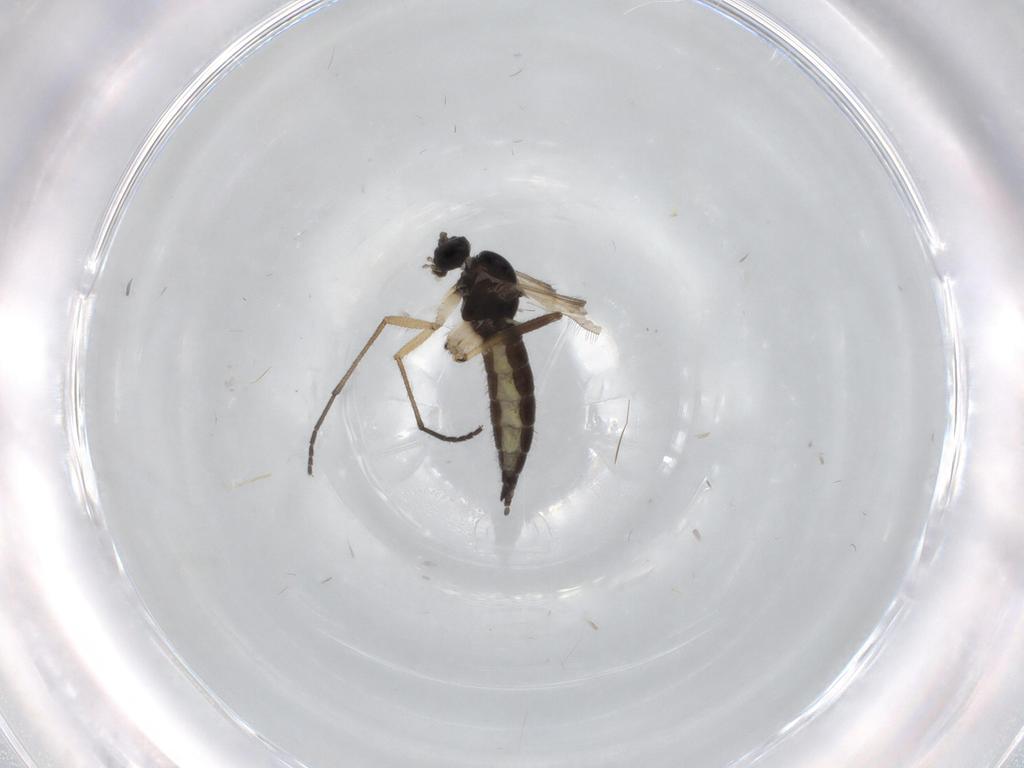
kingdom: Animalia
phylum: Arthropoda
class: Insecta
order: Diptera
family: Sciaridae
